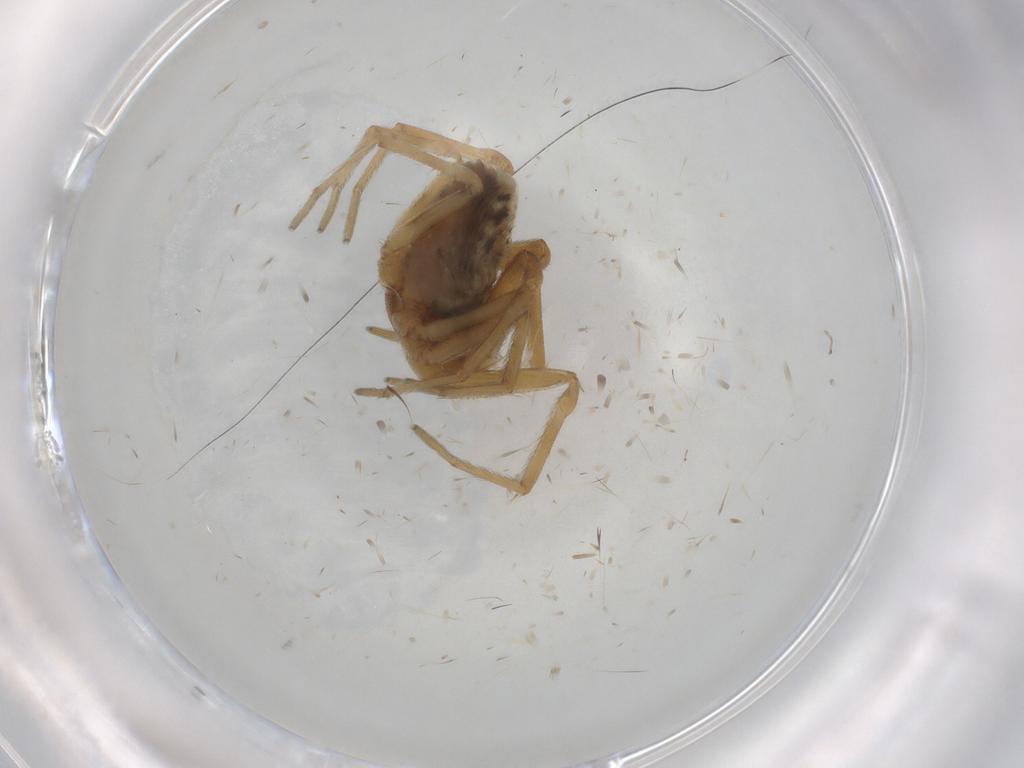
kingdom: Animalia
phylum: Arthropoda
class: Arachnida
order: Araneae
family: Dictynidae
